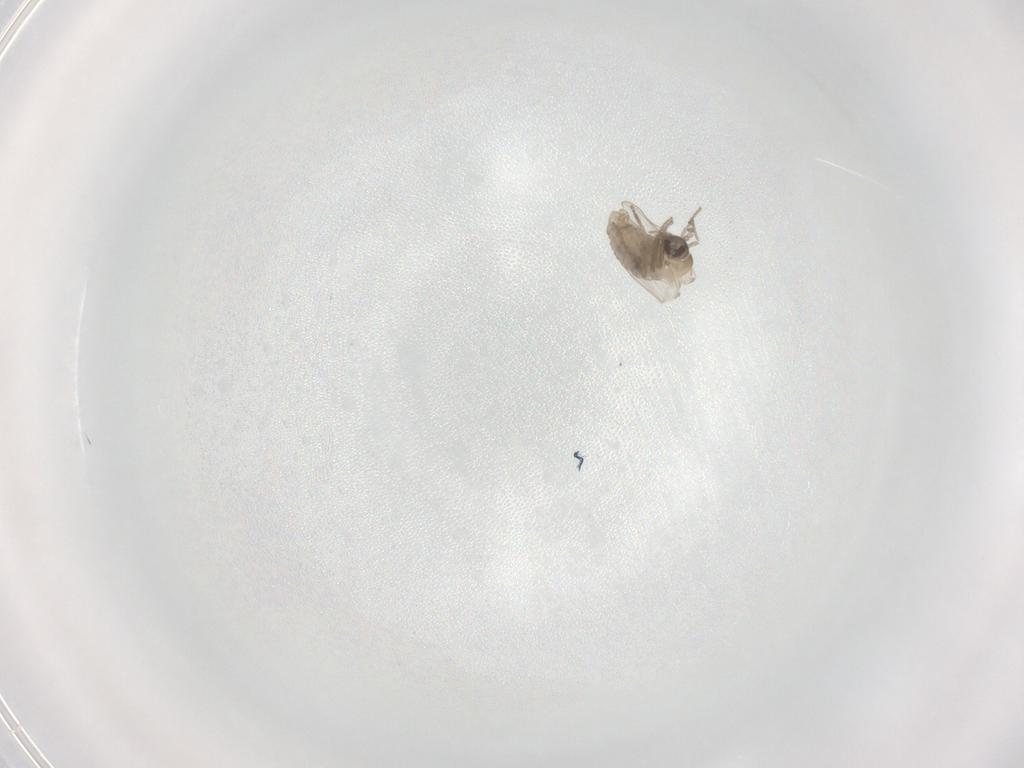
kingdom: Animalia
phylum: Arthropoda
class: Insecta
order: Diptera
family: Psychodidae
